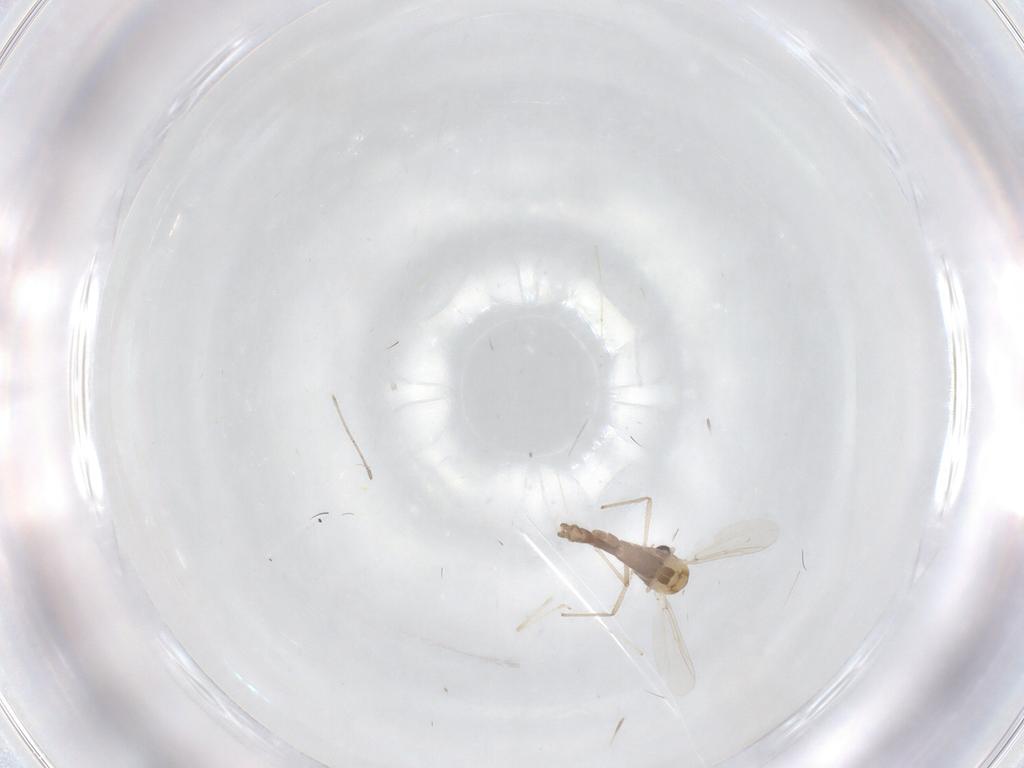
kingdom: Animalia
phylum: Arthropoda
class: Insecta
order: Diptera
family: Chironomidae
